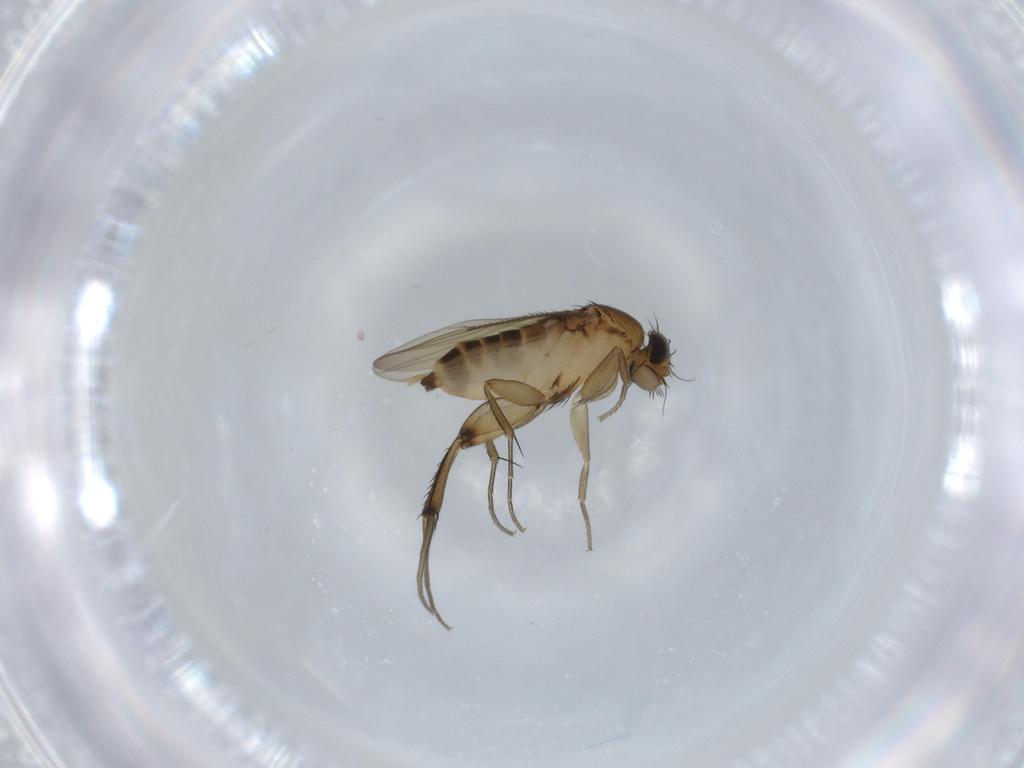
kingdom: Animalia
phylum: Arthropoda
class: Insecta
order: Diptera
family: Phoridae
